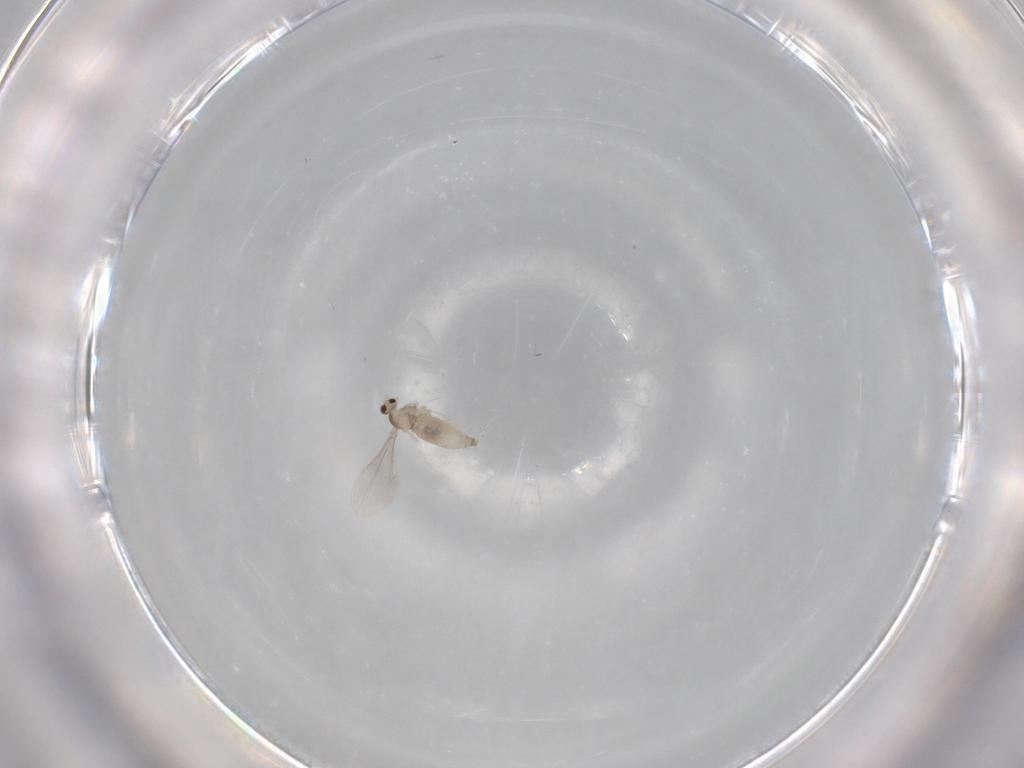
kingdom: Animalia
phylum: Arthropoda
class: Insecta
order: Diptera
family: Cecidomyiidae
